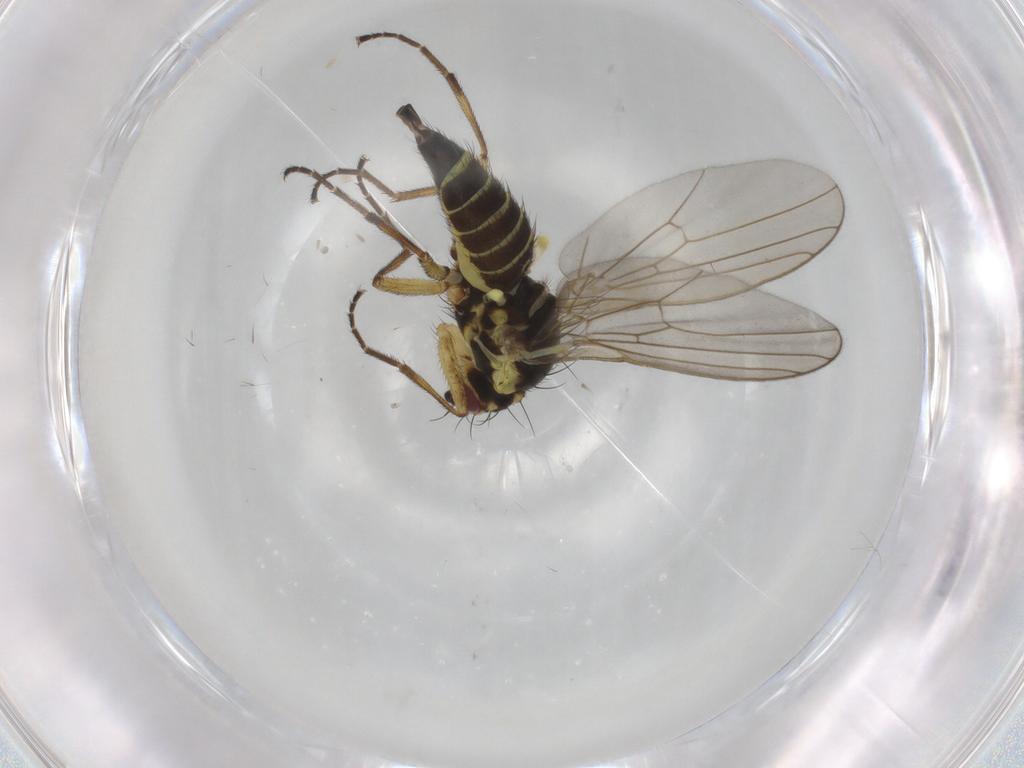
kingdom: Animalia
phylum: Arthropoda
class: Insecta
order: Diptera
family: Agromyzidae
